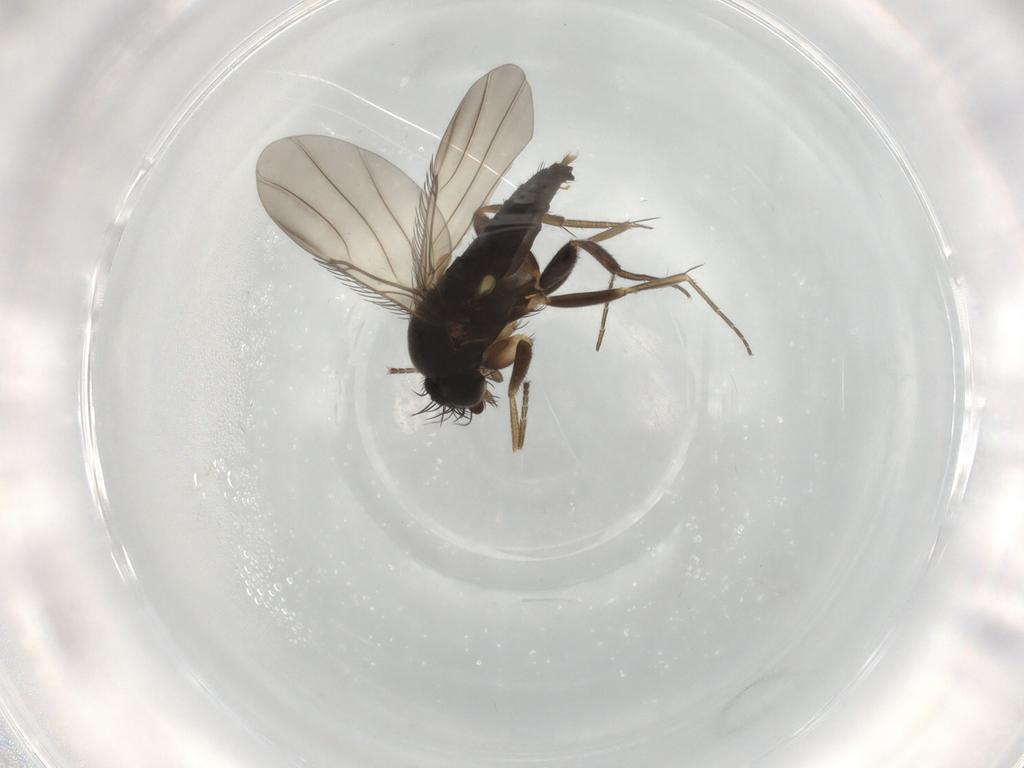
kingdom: Animalia
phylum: Arthropoda
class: Insecta
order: Diptera
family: Phoridae
